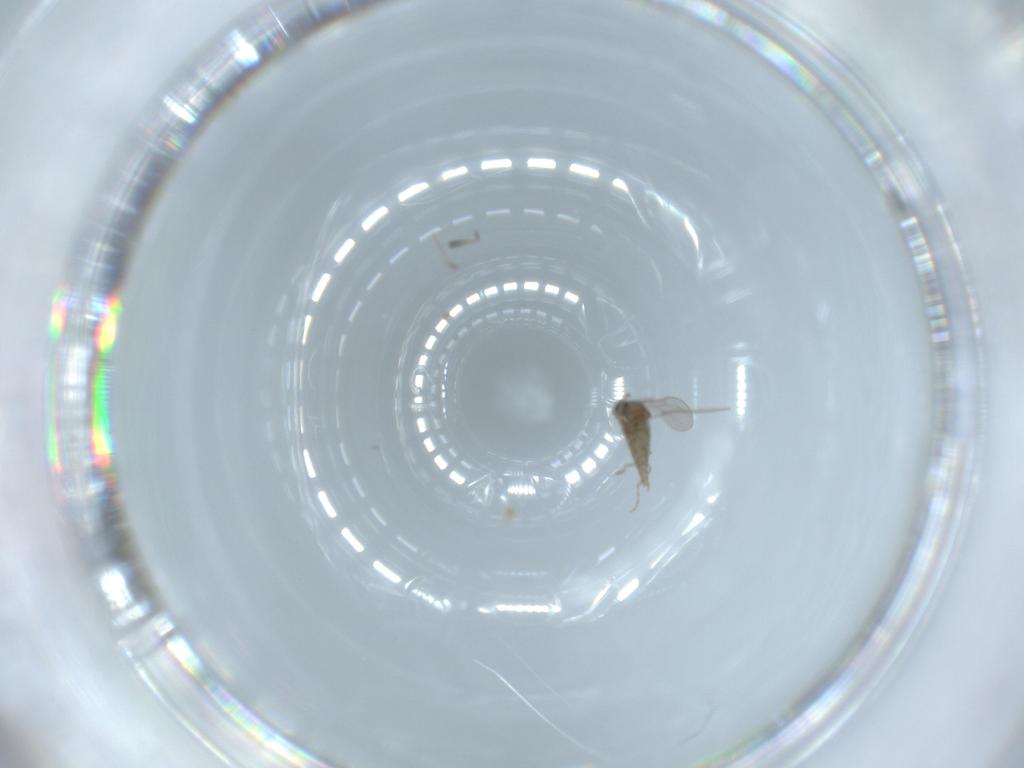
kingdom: Animalia
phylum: Arthropoda
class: Insecta
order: Diptera
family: Cecidomyiidae
